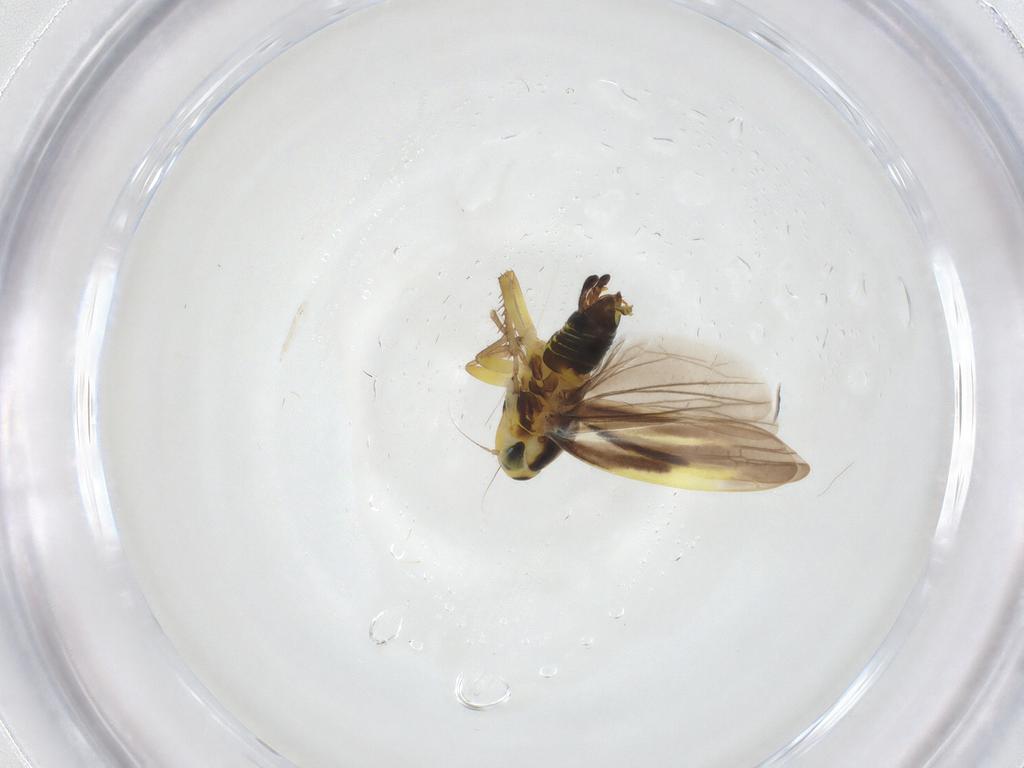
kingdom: Animalia
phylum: Arthropoda
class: Insecta
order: Hemiptera
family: Cicadellidae
